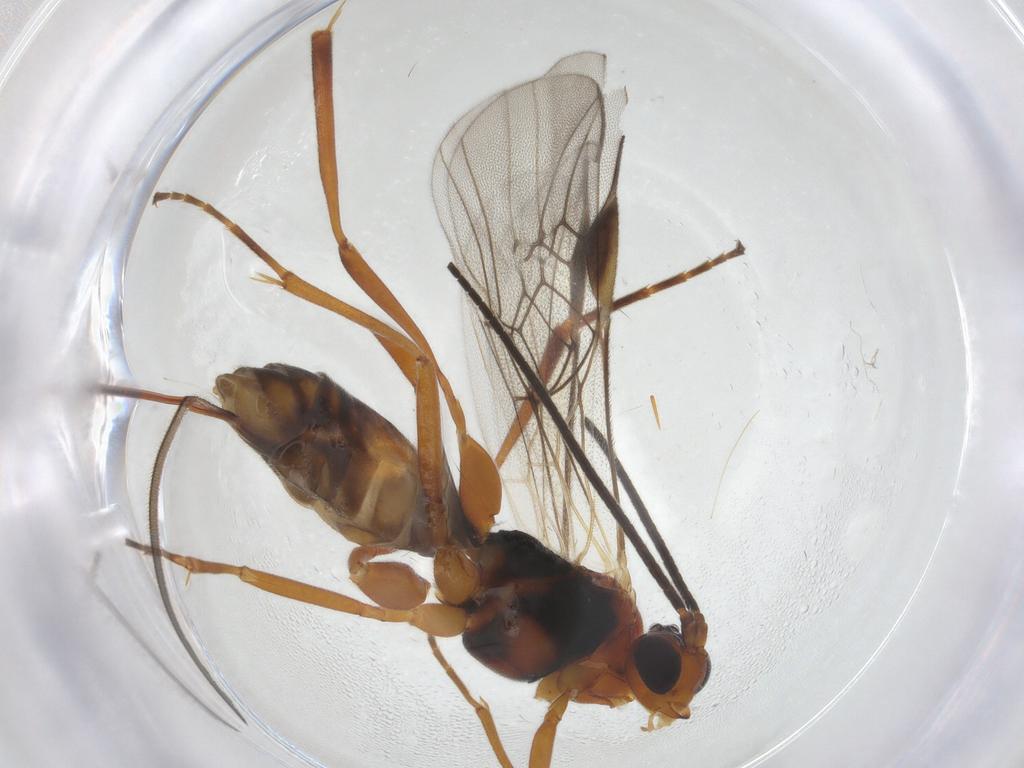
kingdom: Animalia
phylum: Arthropoda
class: Insecta
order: Hymenoptera
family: Braconidae
